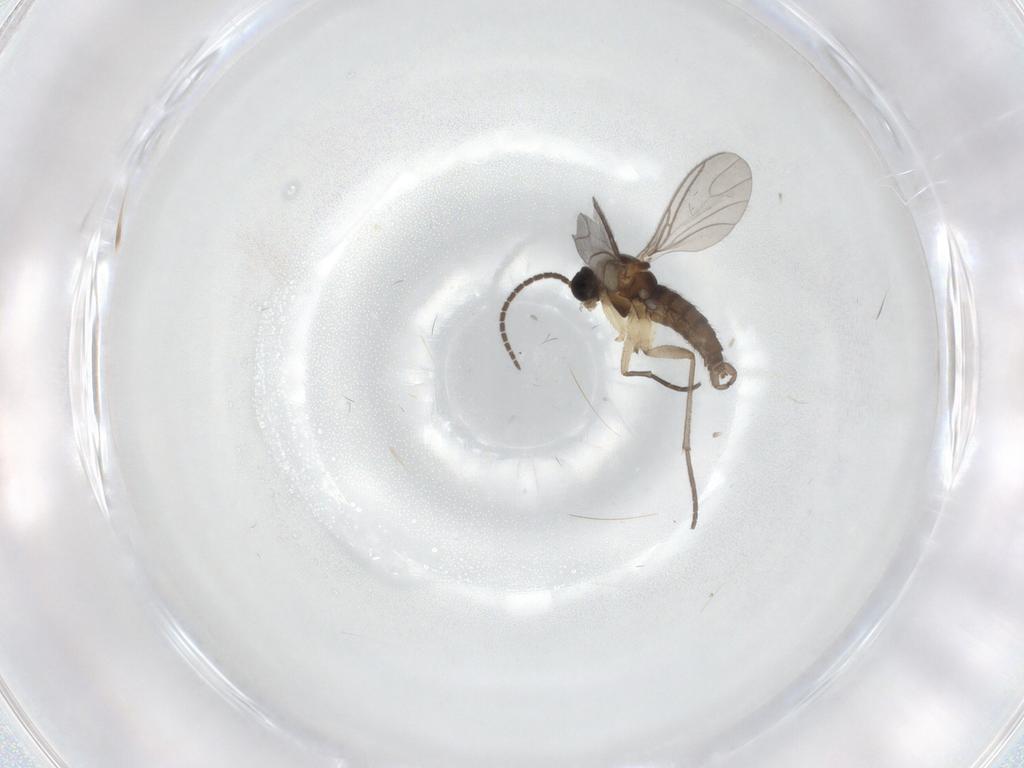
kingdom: Animalia
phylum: Arthropoda
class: Insecta
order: Diptera
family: Sciaridae
